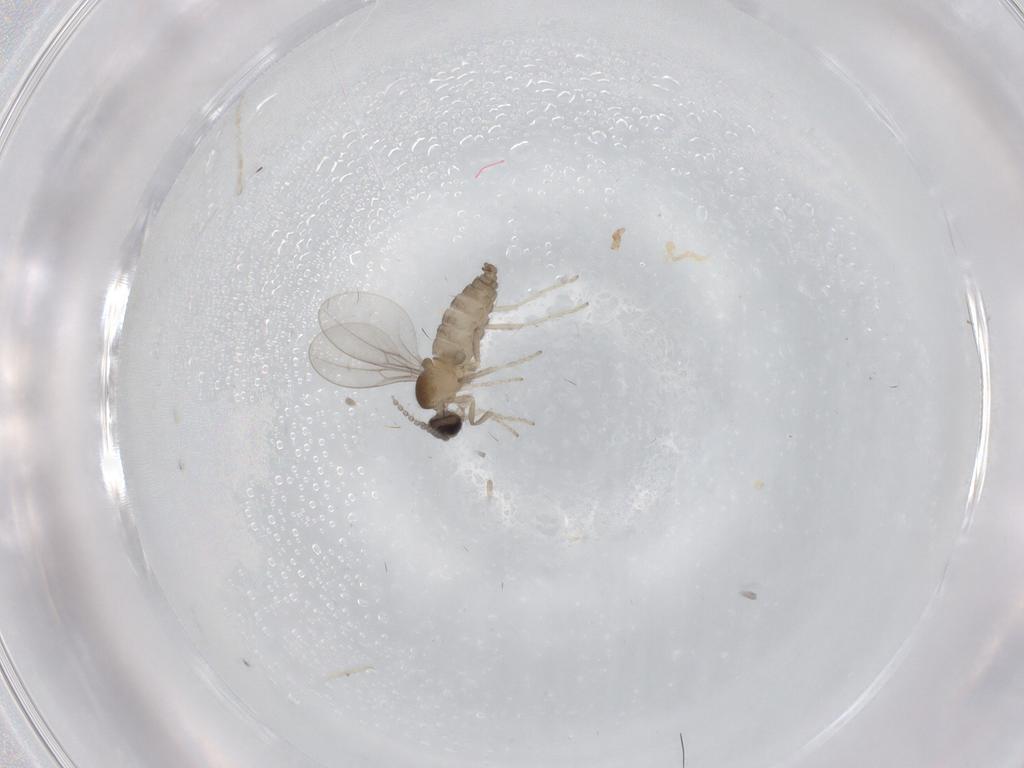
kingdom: Animalia
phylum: Arthropoda
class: Insecta
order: Diptera
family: Cecidomyiidae
